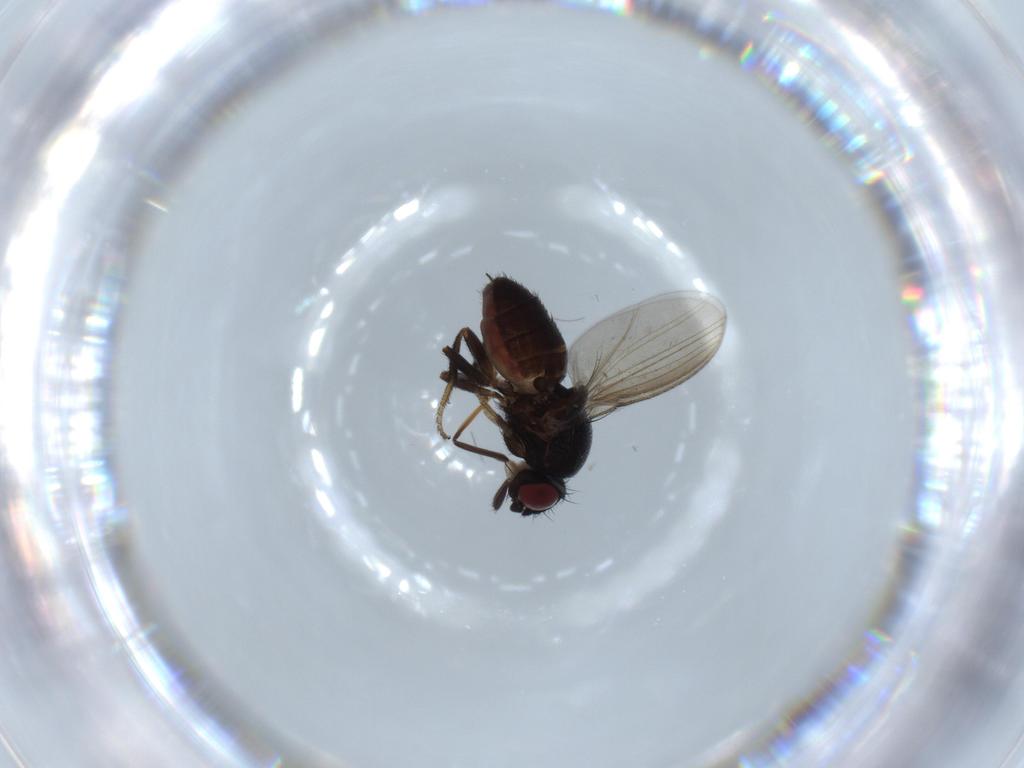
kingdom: Animalia
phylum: Arthropoda
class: Insecta
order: Diptera
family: Milichiidae
